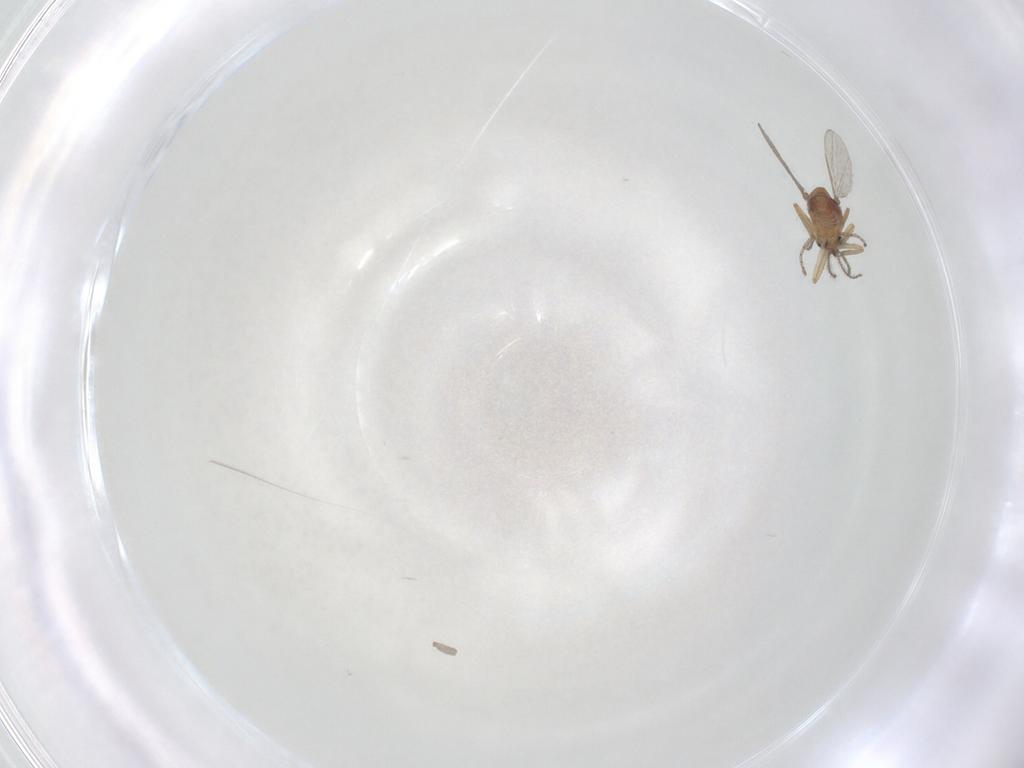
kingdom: Animalia
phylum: Arthropoda
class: Insecta
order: Diptera
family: Ceratopogonidae
